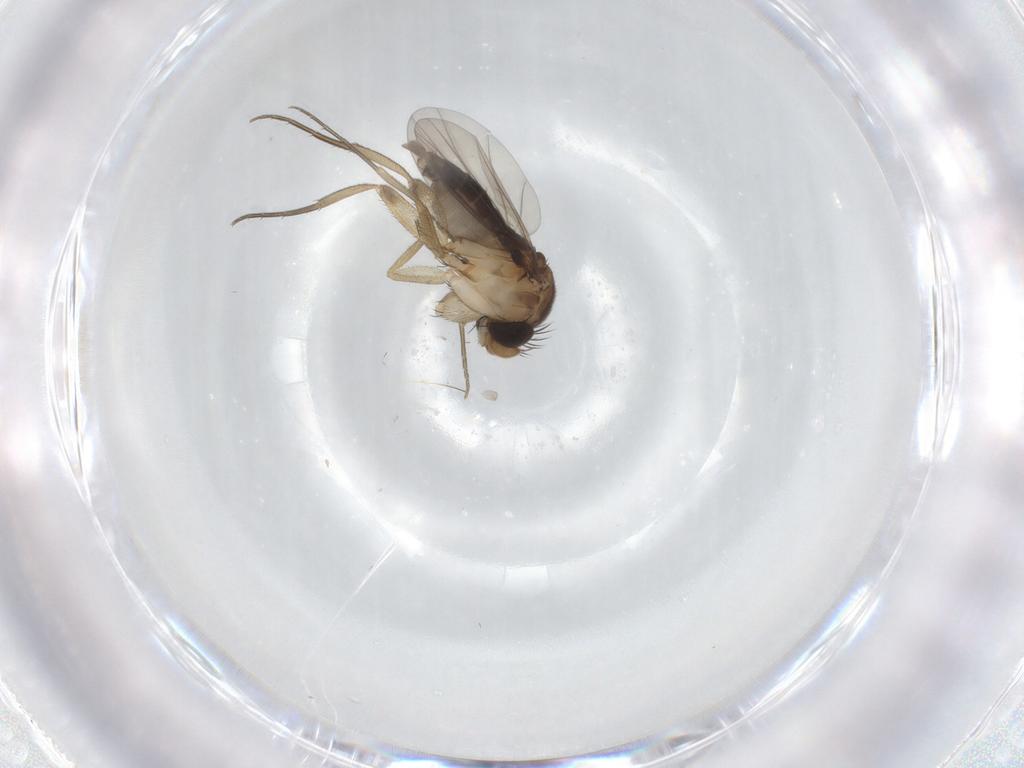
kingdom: Animalia
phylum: Arthropoda
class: Insecta
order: Diptera
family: Phoridae
